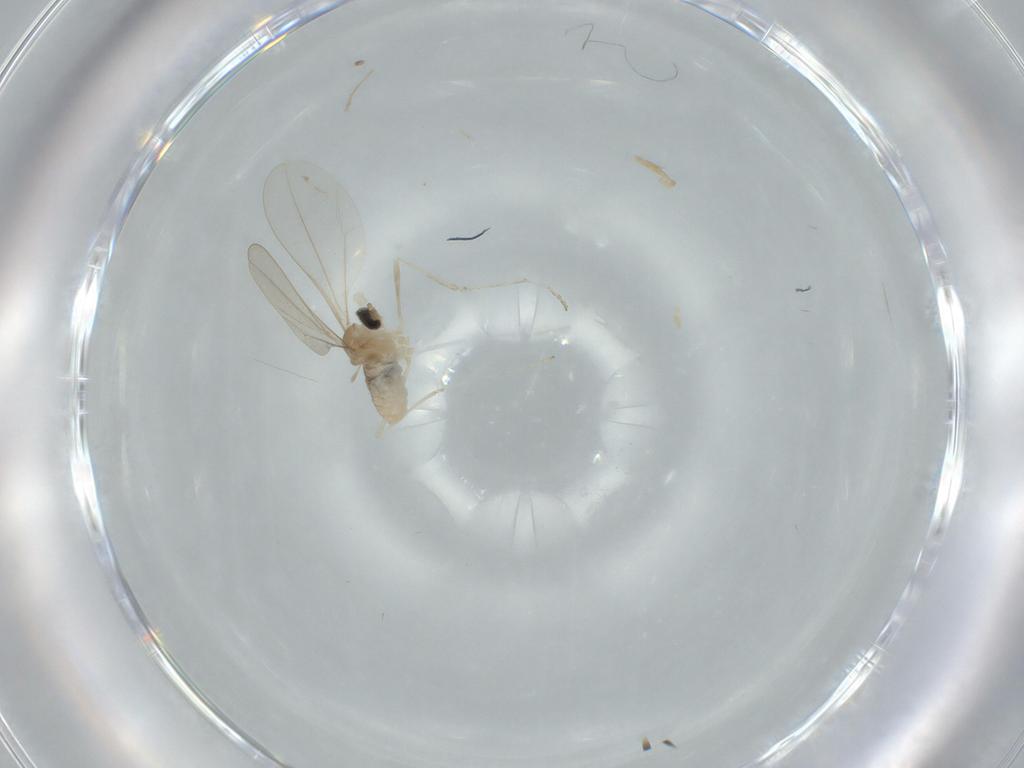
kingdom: Animalia
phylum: Arthropoda
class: Insecta
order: Diptera
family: Cecidomyiidae
